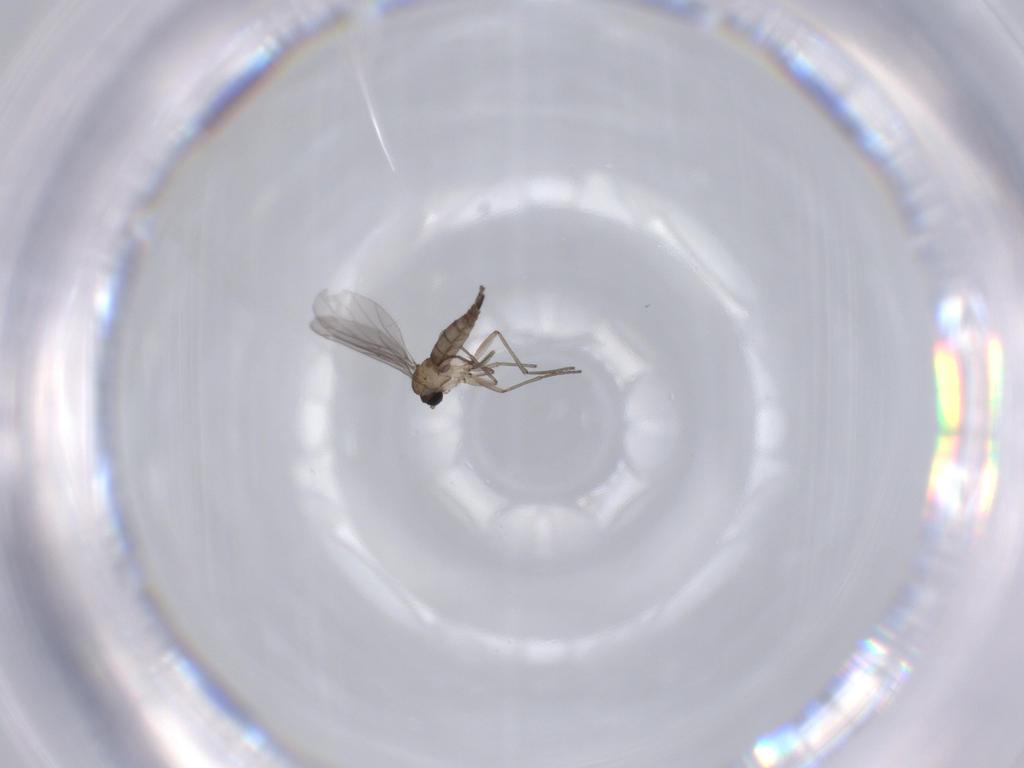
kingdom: Animalia
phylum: Arthropoda
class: Insecta
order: Diptera
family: Sciaridae
